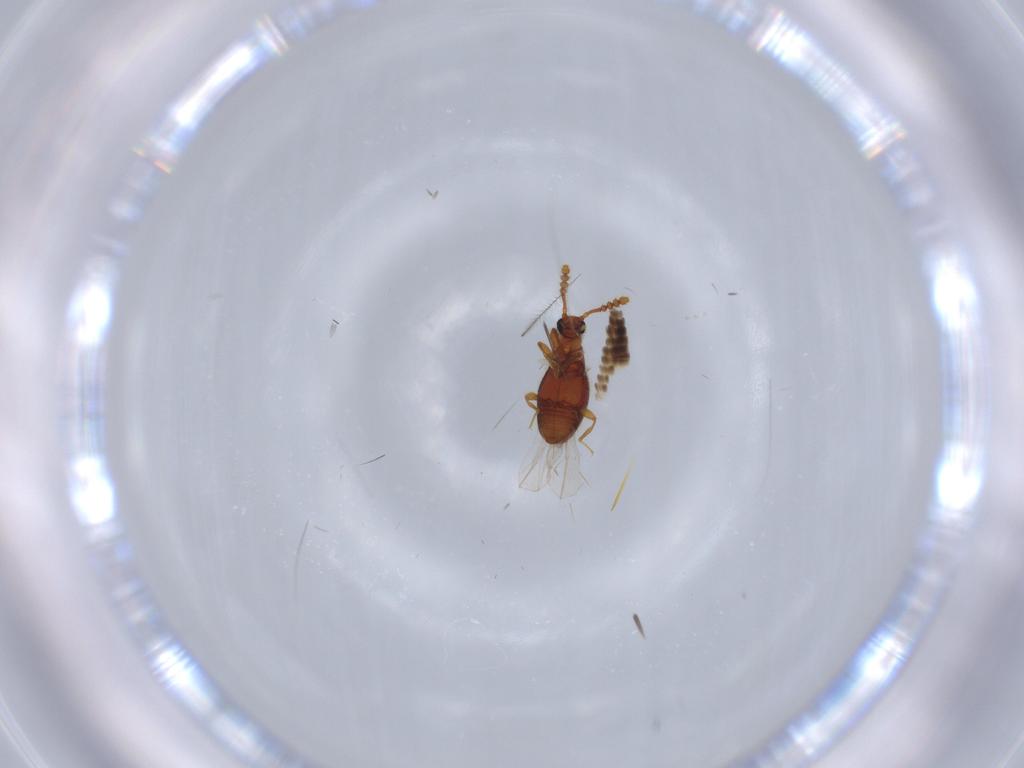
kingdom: Animalia
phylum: Arthropoda
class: Insecta
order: Coleoptera
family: Staphylinidae
